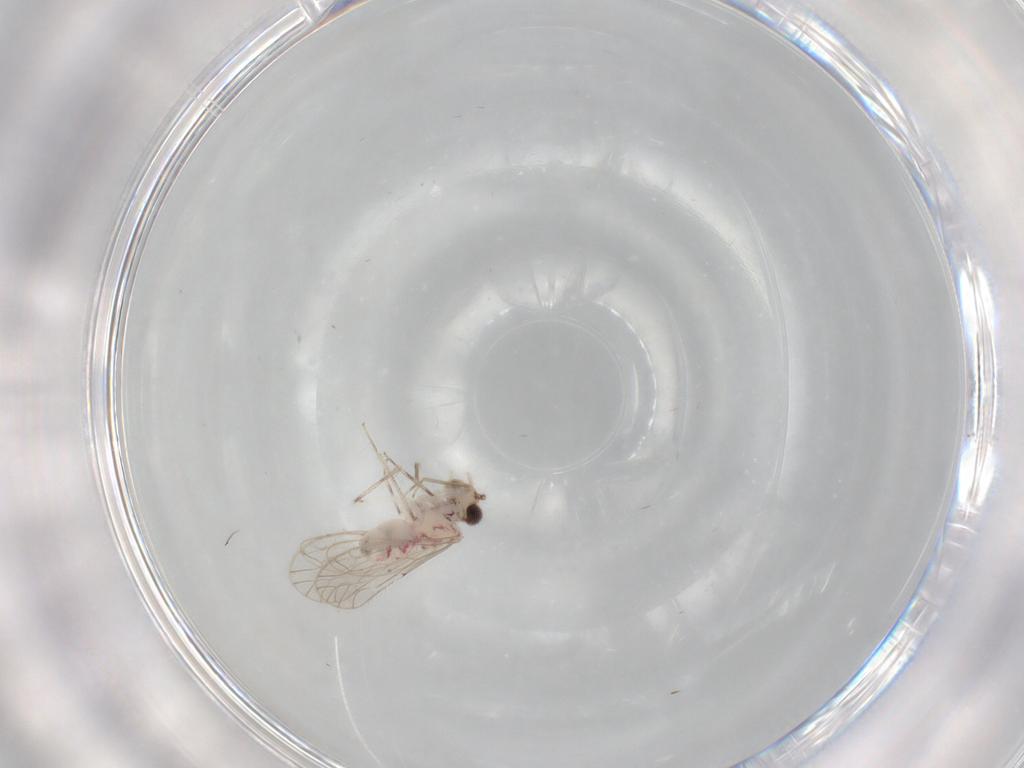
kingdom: Animalia
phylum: Arthropoda
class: Insecta
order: Psocodea
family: Caeciliusidae
